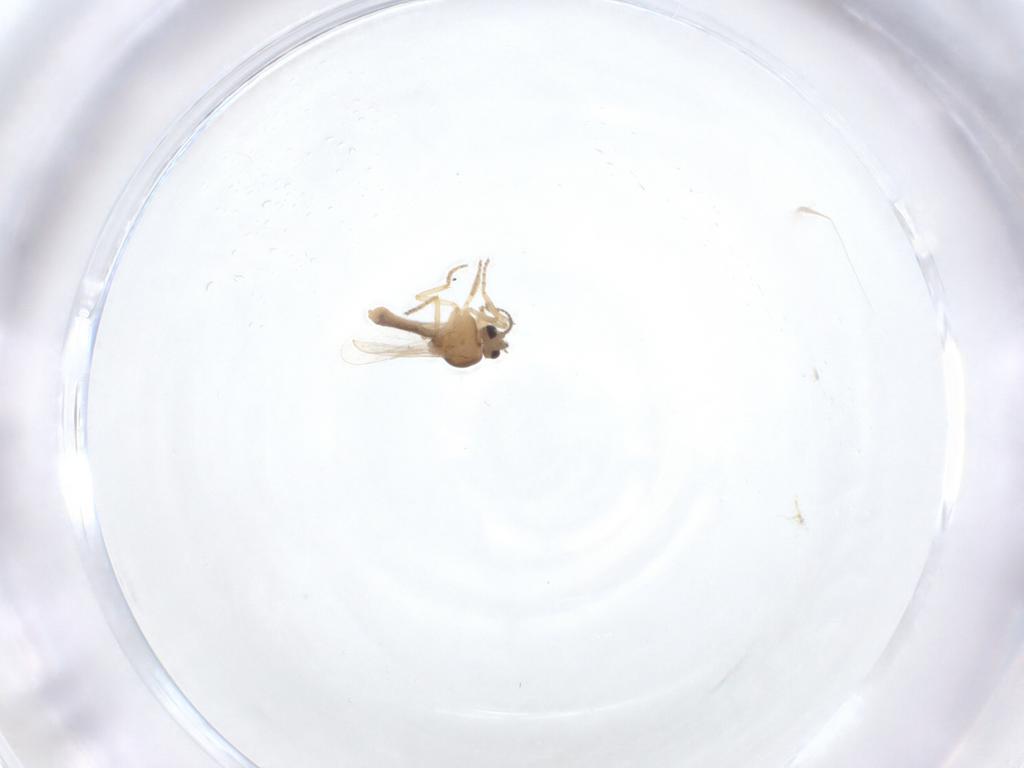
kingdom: Animalia
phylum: Arthropoda
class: Insecta
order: Diptera
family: Ceratopogonidae
